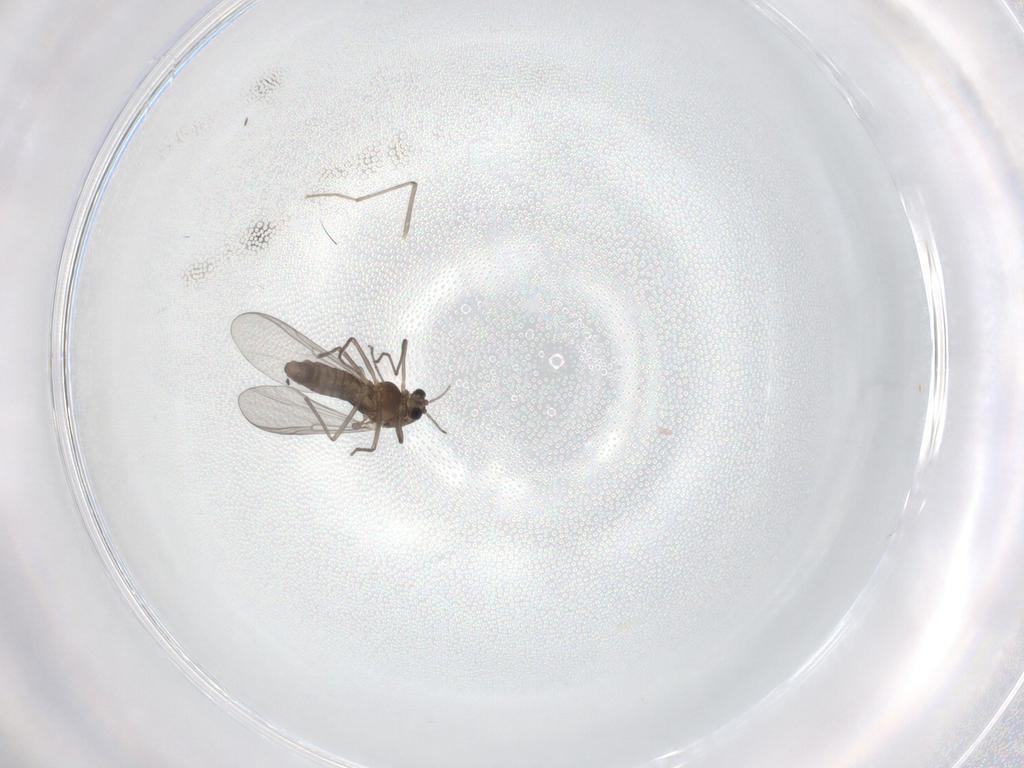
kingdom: Animalia
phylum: Arthropoda
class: Insecta
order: Diptera
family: Chironomidae
